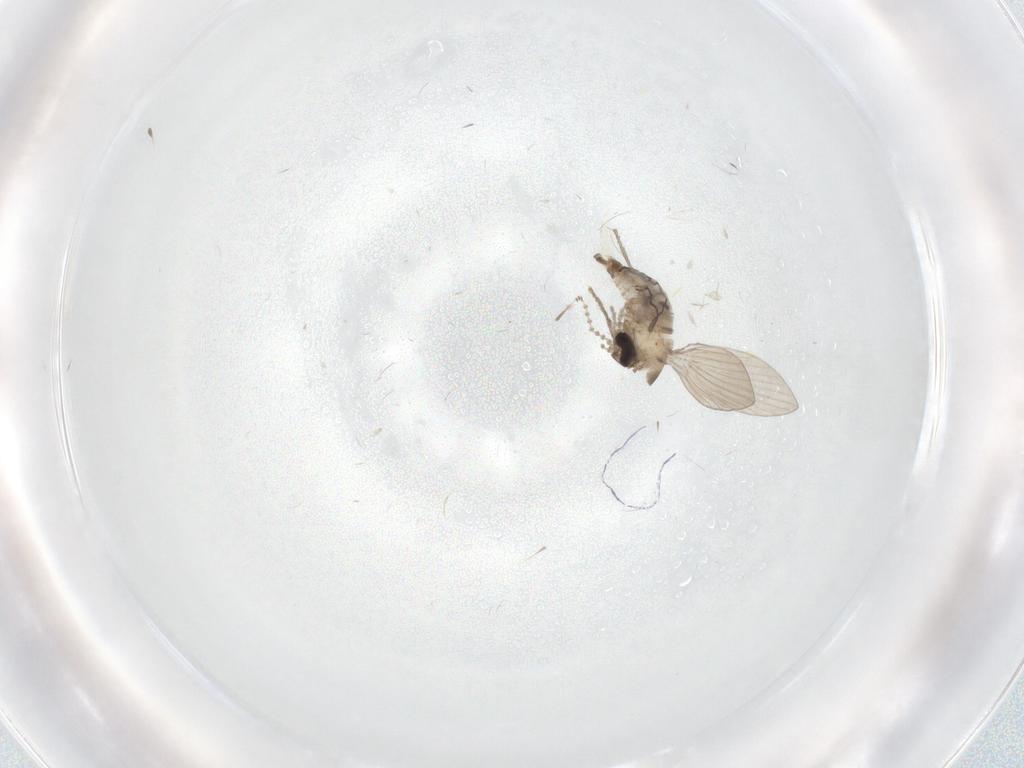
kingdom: Animalia
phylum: Arthropoda
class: Insecta
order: Diptera
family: Psychodidae
